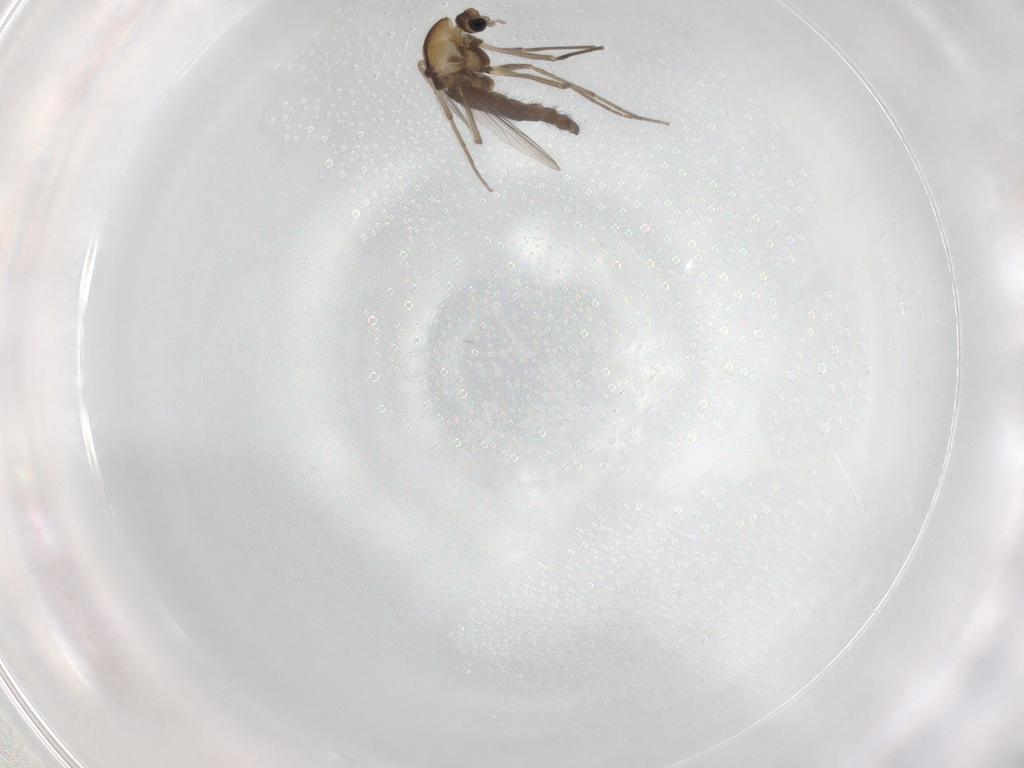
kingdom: Animalia
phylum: Arthropoda
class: Insecta
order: Diptera
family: Chironomidae
